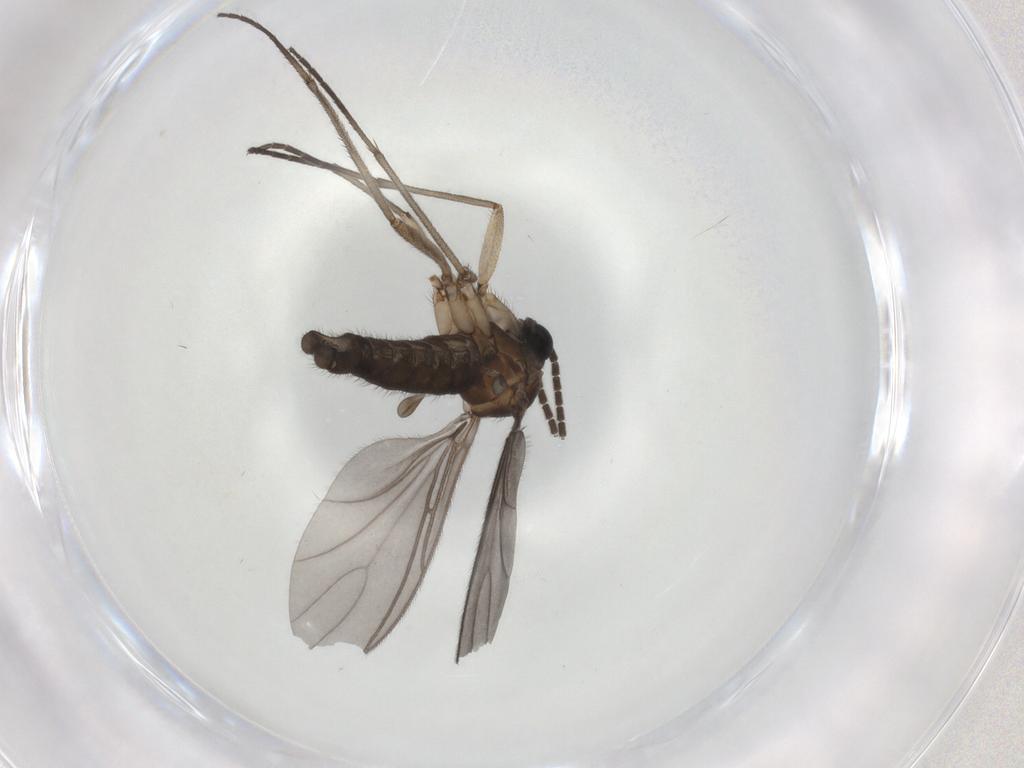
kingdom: Animalia
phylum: Arthropoda
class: Insecta
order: Diptera
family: Sciaridae
